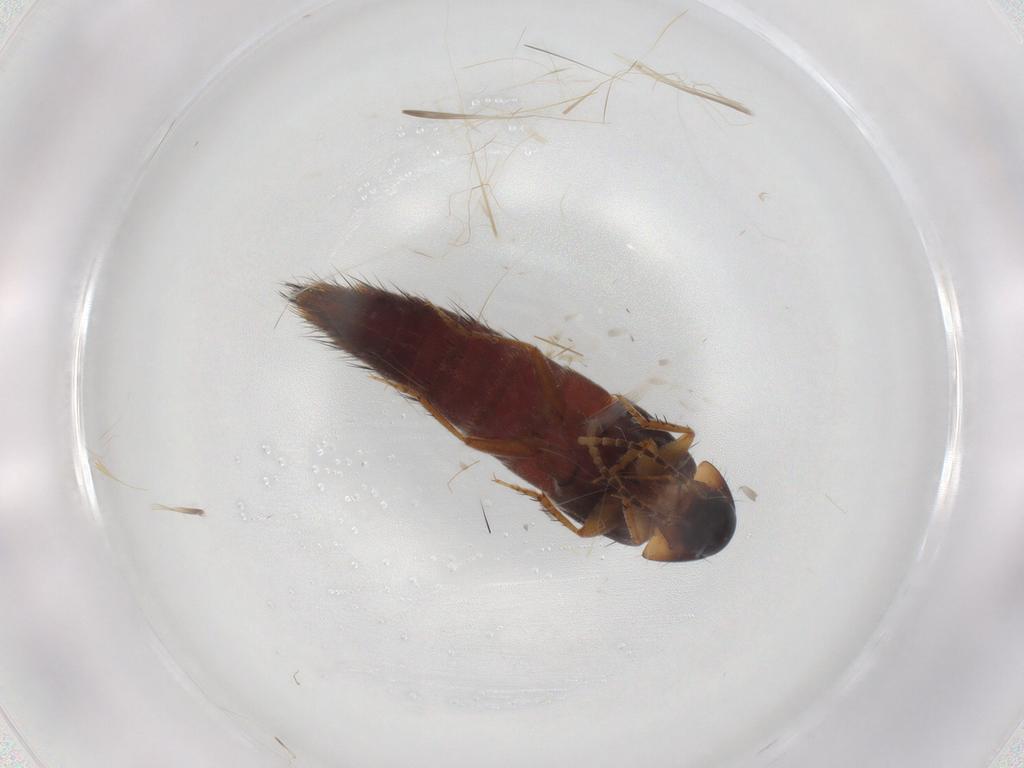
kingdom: Animalia
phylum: Arthropoda
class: Insecta
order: Coleoptera
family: Staphylinidae
